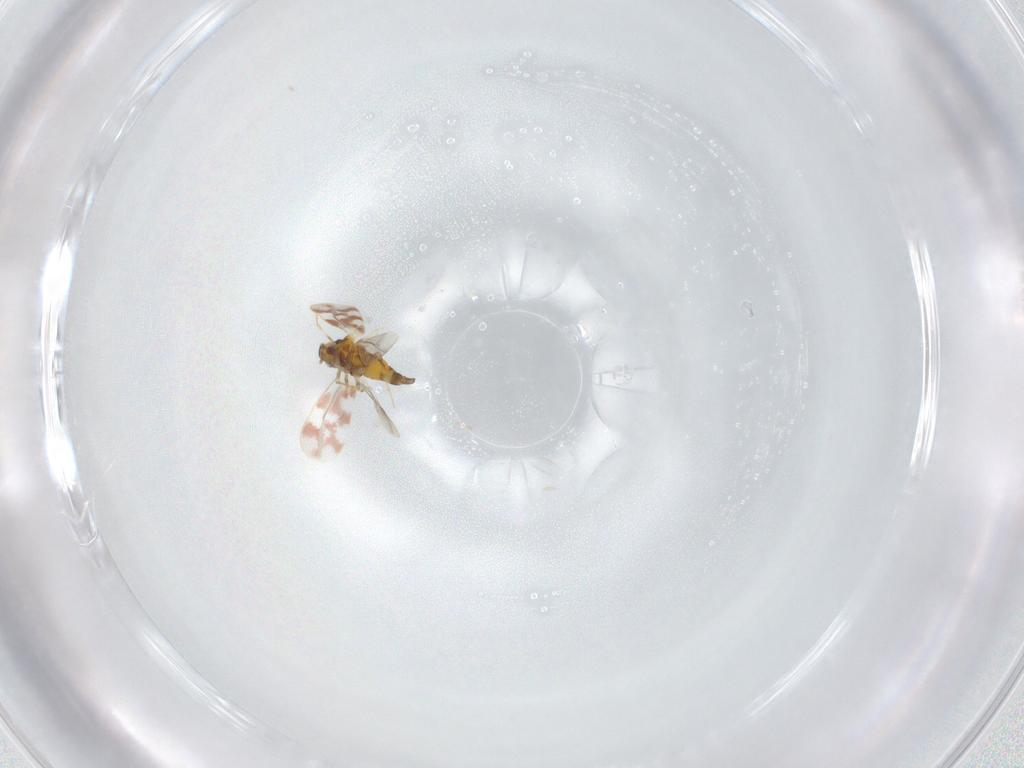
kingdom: Animalia
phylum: Arthropoda
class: Insecta
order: Hemiptera
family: Aleyrodidae
